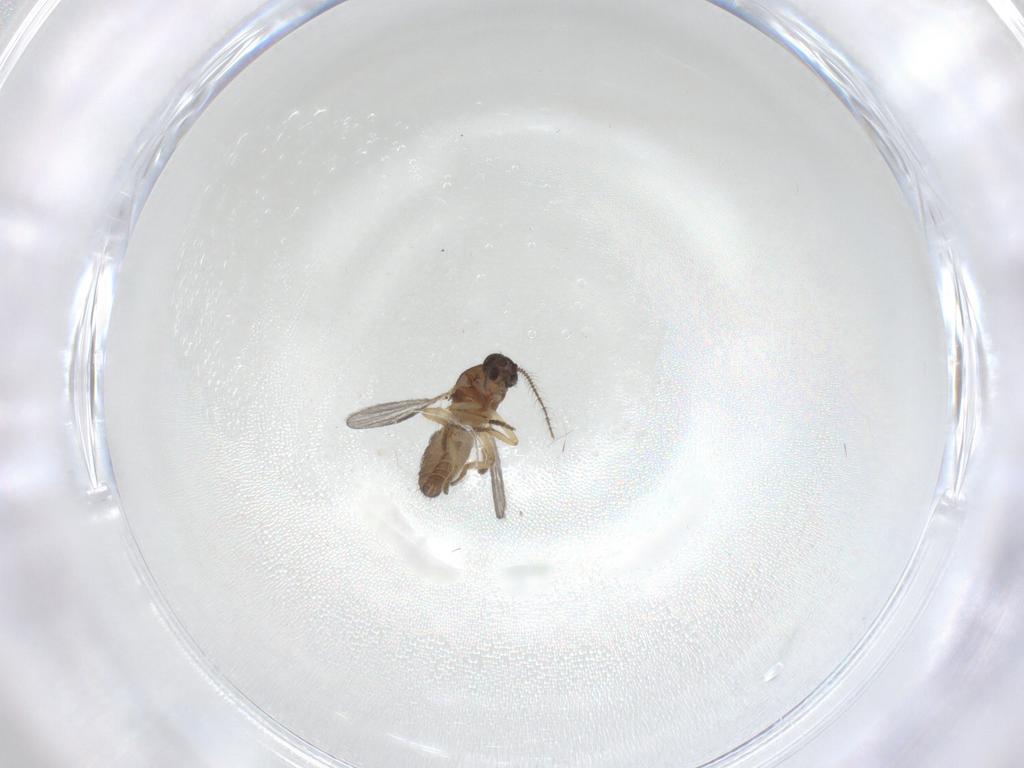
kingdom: Animalia
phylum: Arthropoda
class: Insecta
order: Diptera
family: Ceratopogonidae
